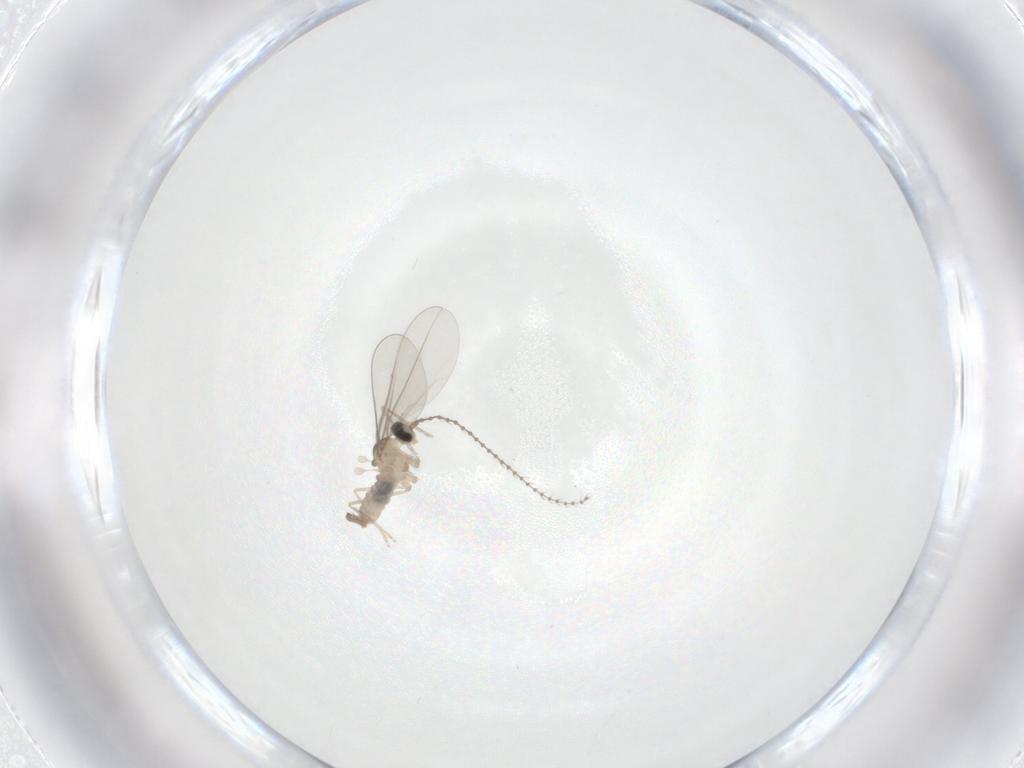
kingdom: Animalia
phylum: Arthropoda
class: Insecta
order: Diptera
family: Cecidomyiidae
